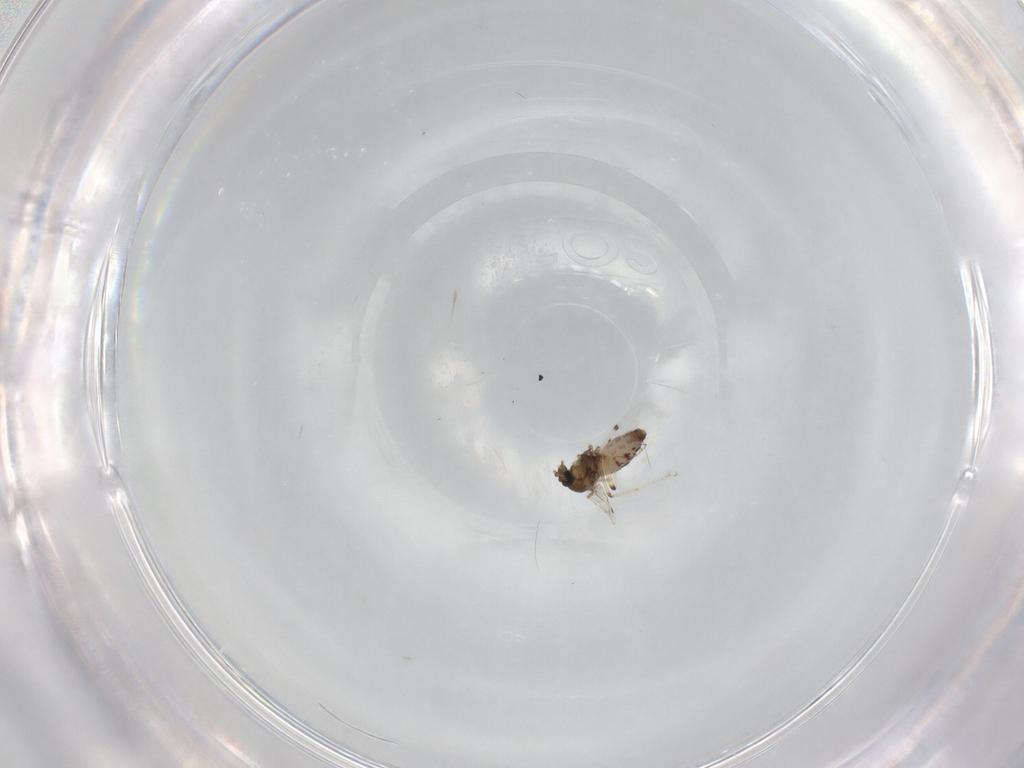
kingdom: Animalia
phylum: Arthropoda
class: Insecta
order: Diptera
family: Ceratopogonidae
